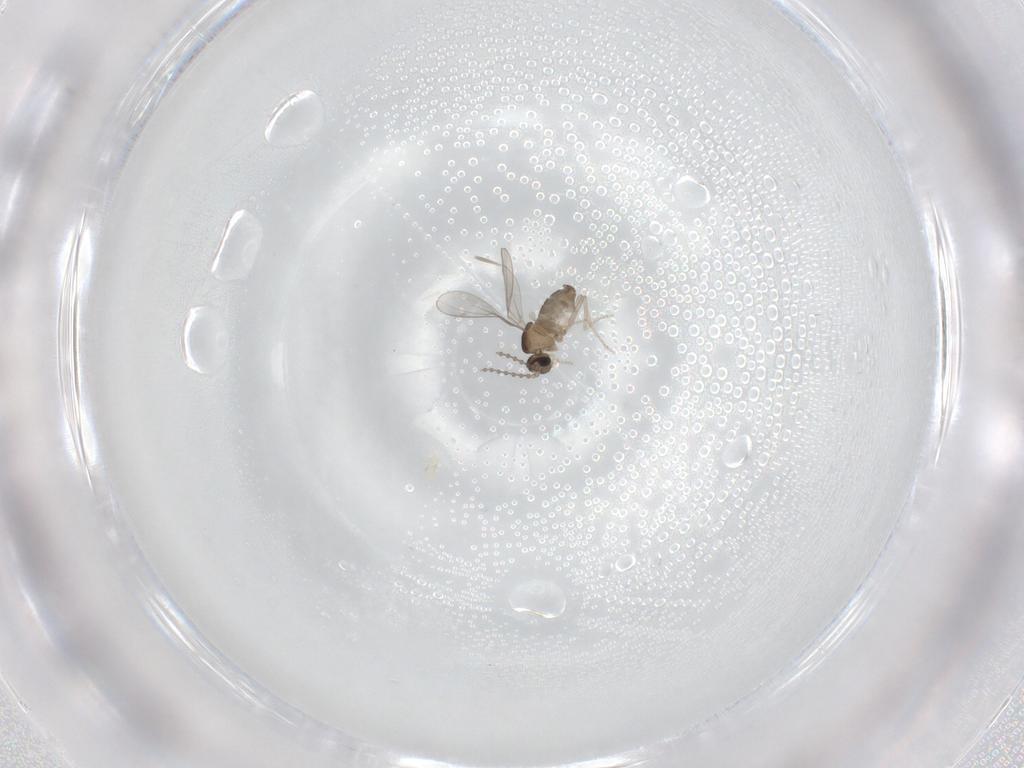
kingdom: Animalia
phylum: Arthropoda
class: Insecta
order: Diptera
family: Cecidomyiidae
